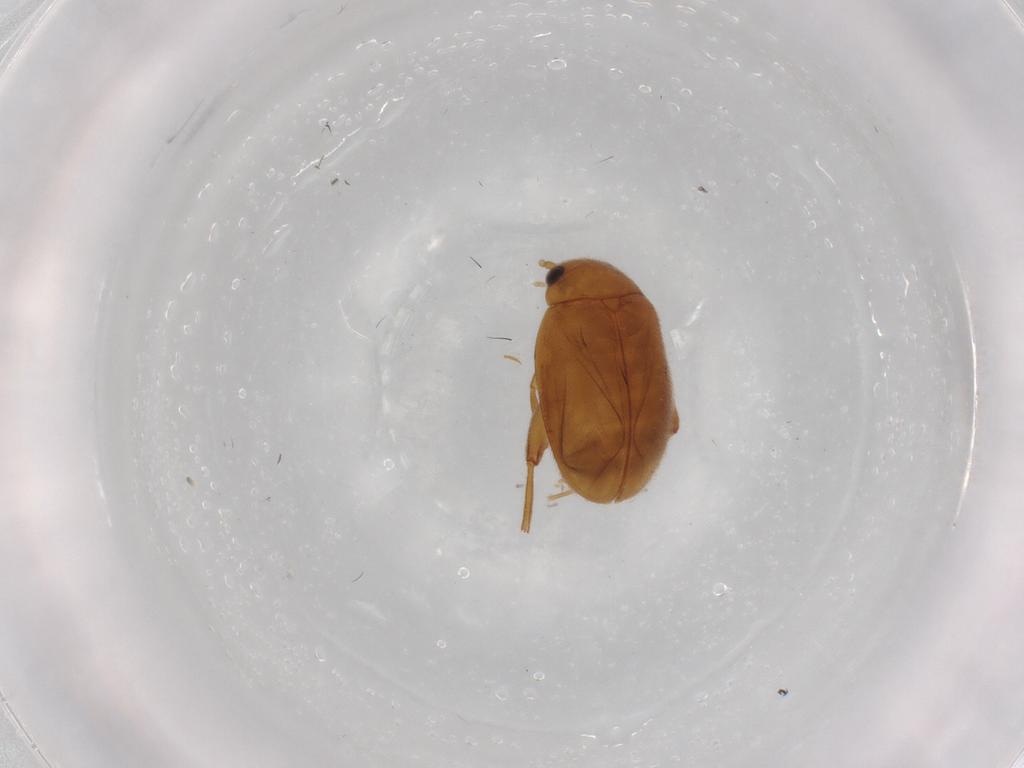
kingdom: Animalia
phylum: Arthropoda
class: Insecta
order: Coleoptera
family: Scirtidae
